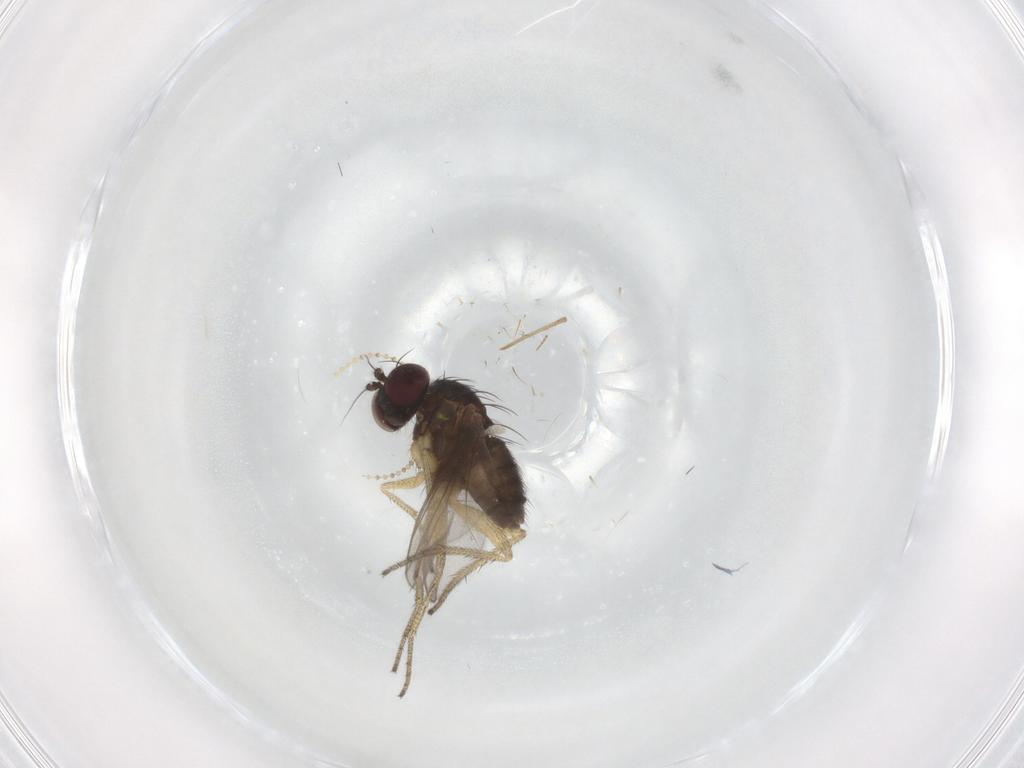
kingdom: Animalia
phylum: Arthropoda
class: Insecta
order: Diptera
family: Dolichopodidae
